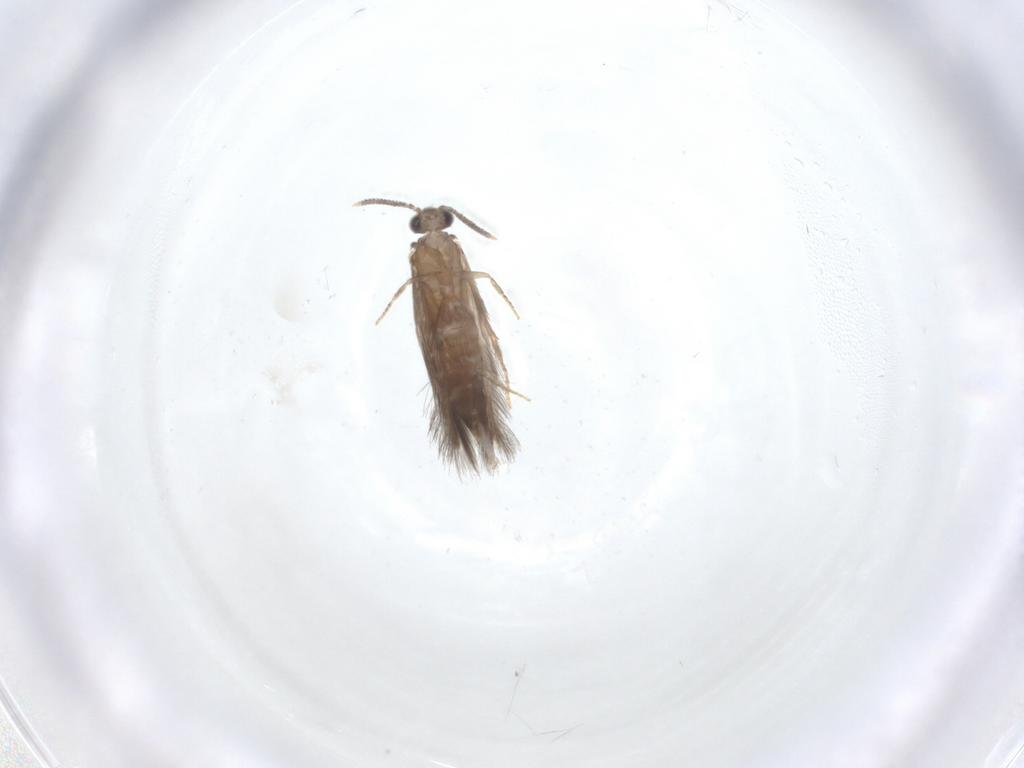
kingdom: Animalia
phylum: Arthropoda
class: Insecta
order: Trichoptera
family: Hydroptilidae
